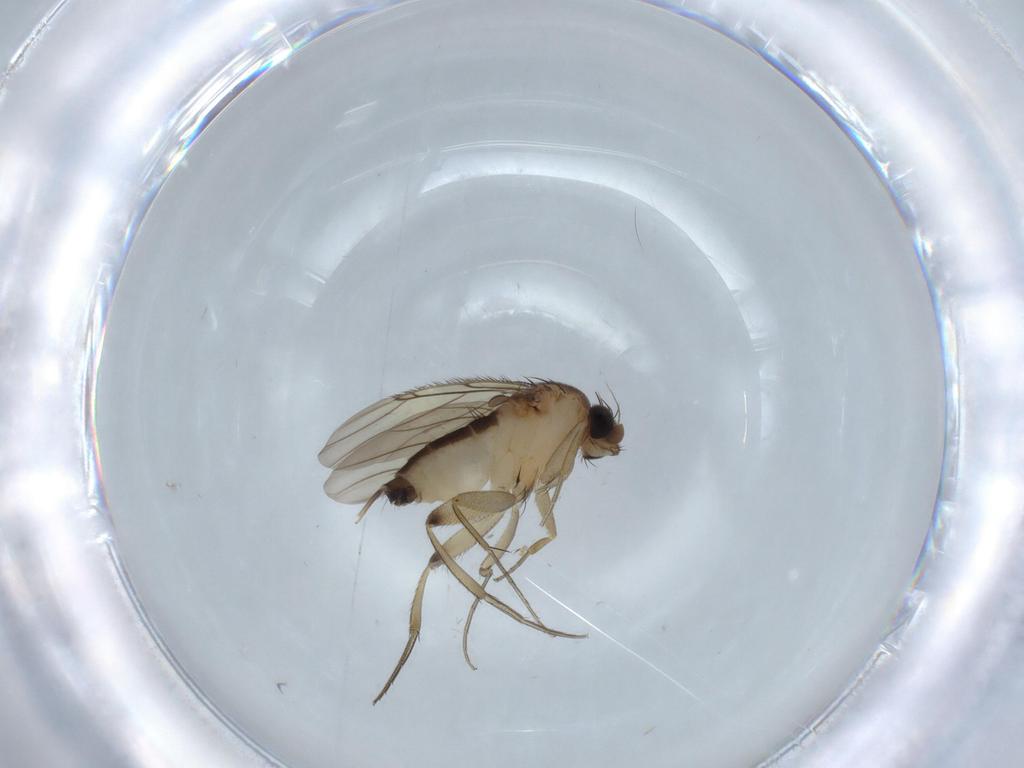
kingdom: Animalia
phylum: Arthropoda
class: Insecta
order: Diptera
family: Phoridae
